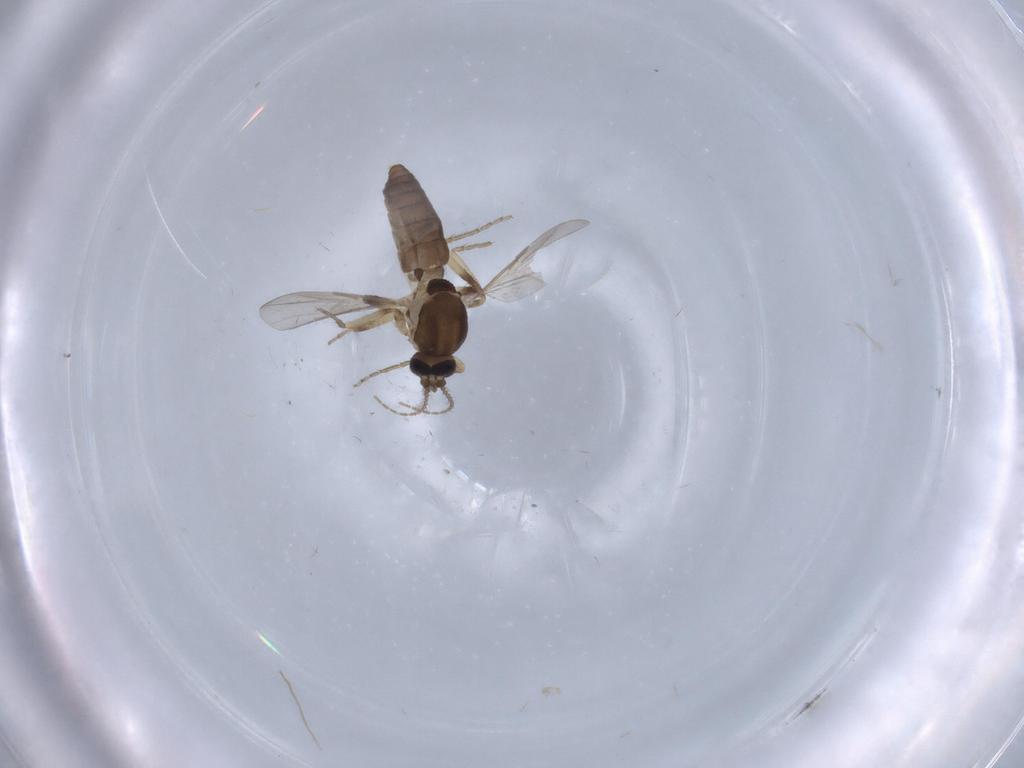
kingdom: Animalia
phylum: Arthropoda
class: Insecta
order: Diptera
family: Ceratopogonidae
